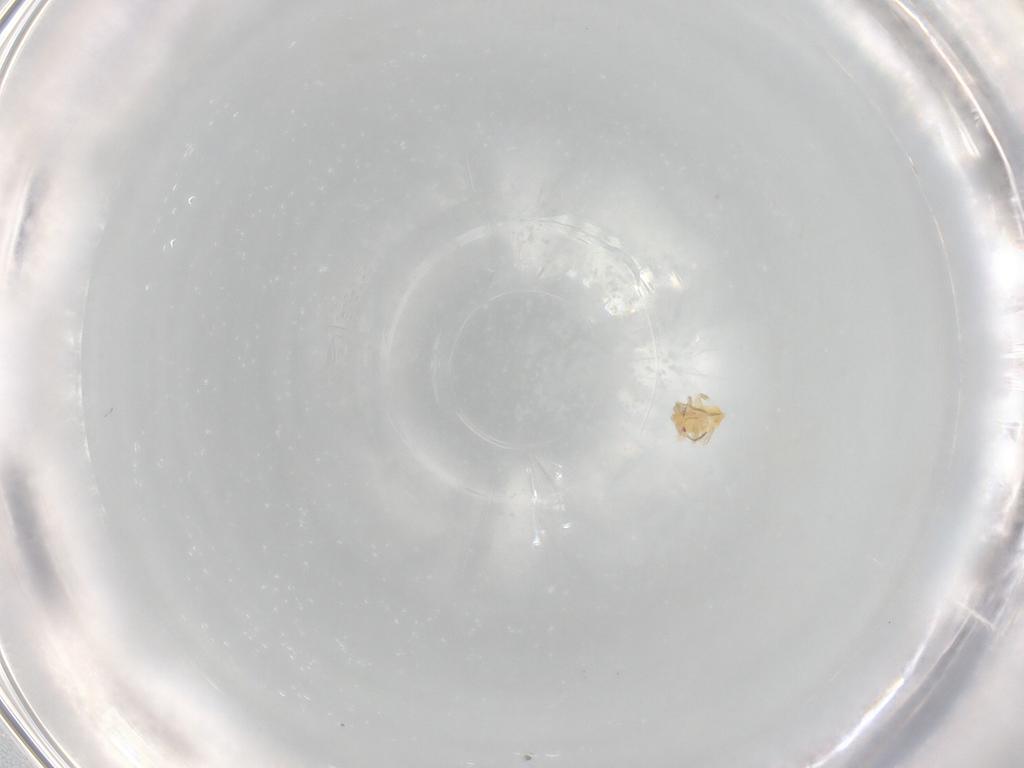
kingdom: Animalia
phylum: Arthropoda
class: Insecta
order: Hemiptera
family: Miridae
